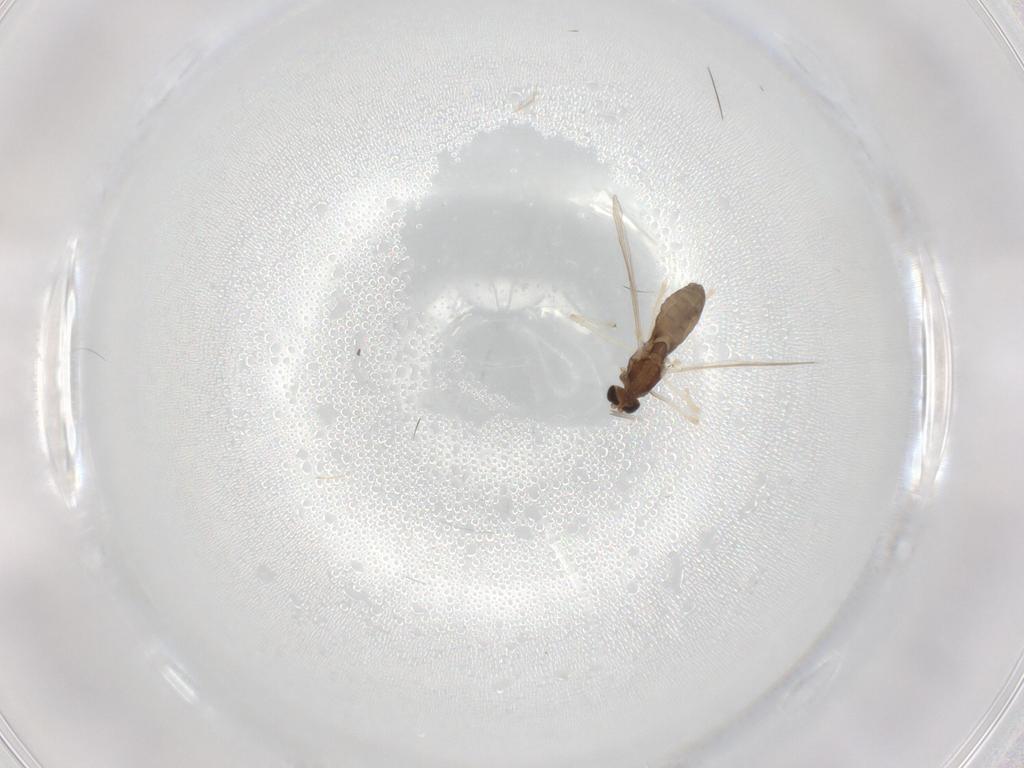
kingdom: Animalia
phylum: Arthropoda
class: Insecta
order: Diptera
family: Chironomidae
